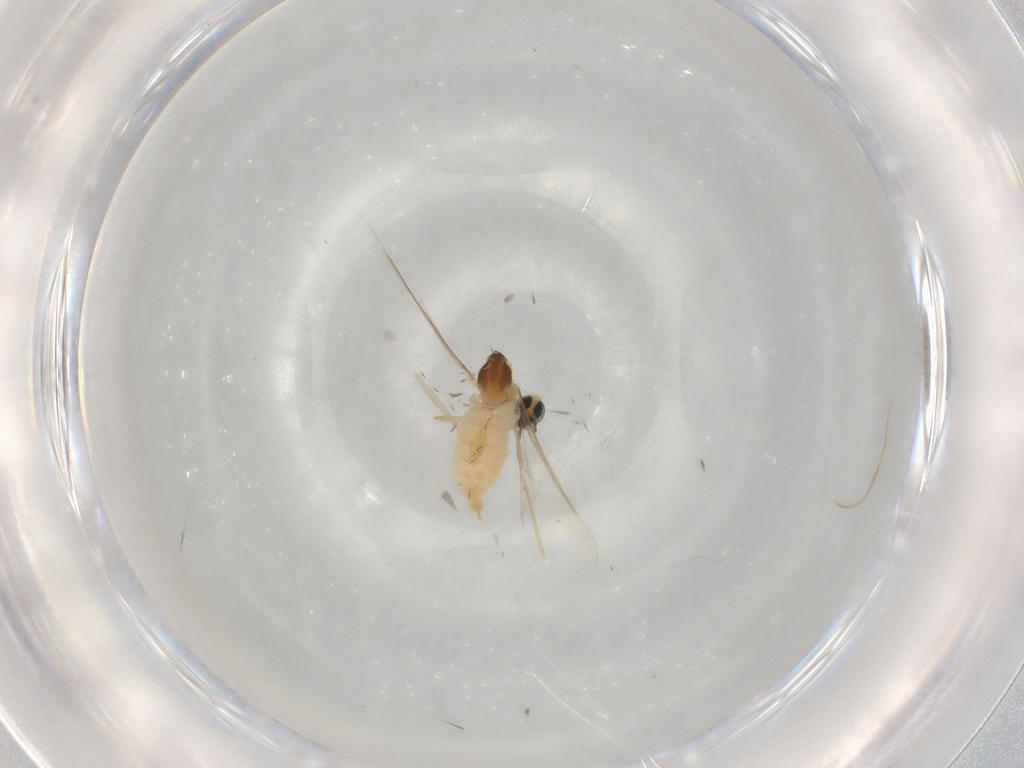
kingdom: Animalia
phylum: Arthropoda
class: Insecta
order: Diptera
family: Cecidomyiidae
